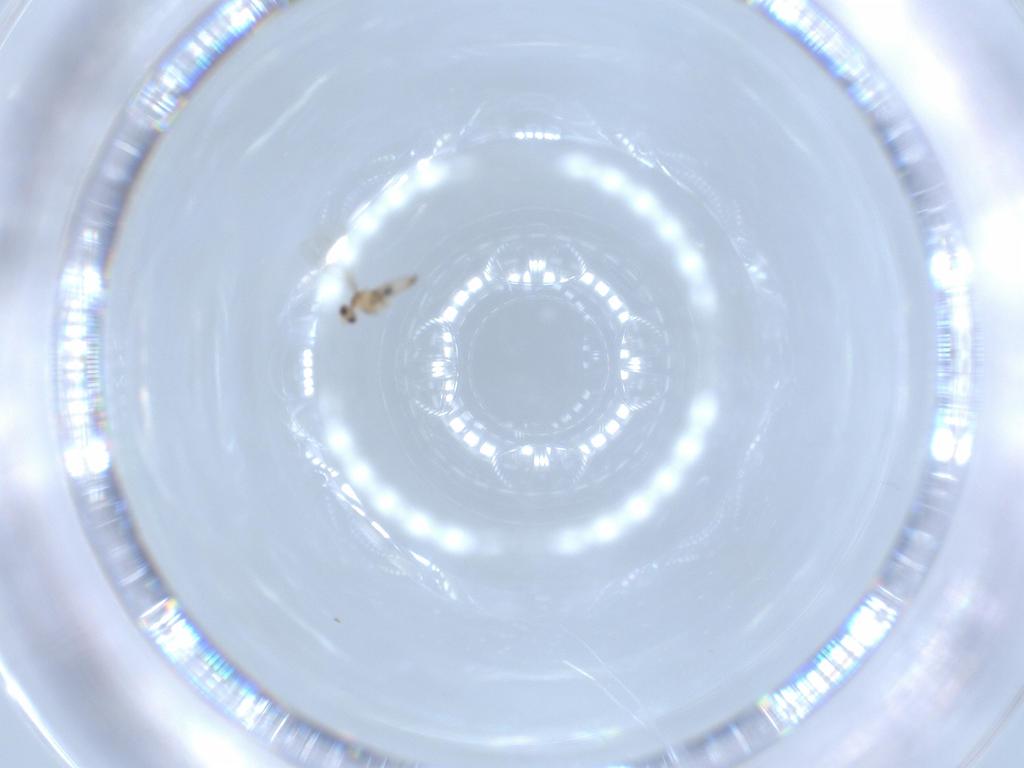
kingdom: Animalia
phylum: Arthropoda
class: Insecta
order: Diptera
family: Cecidomyiidae
